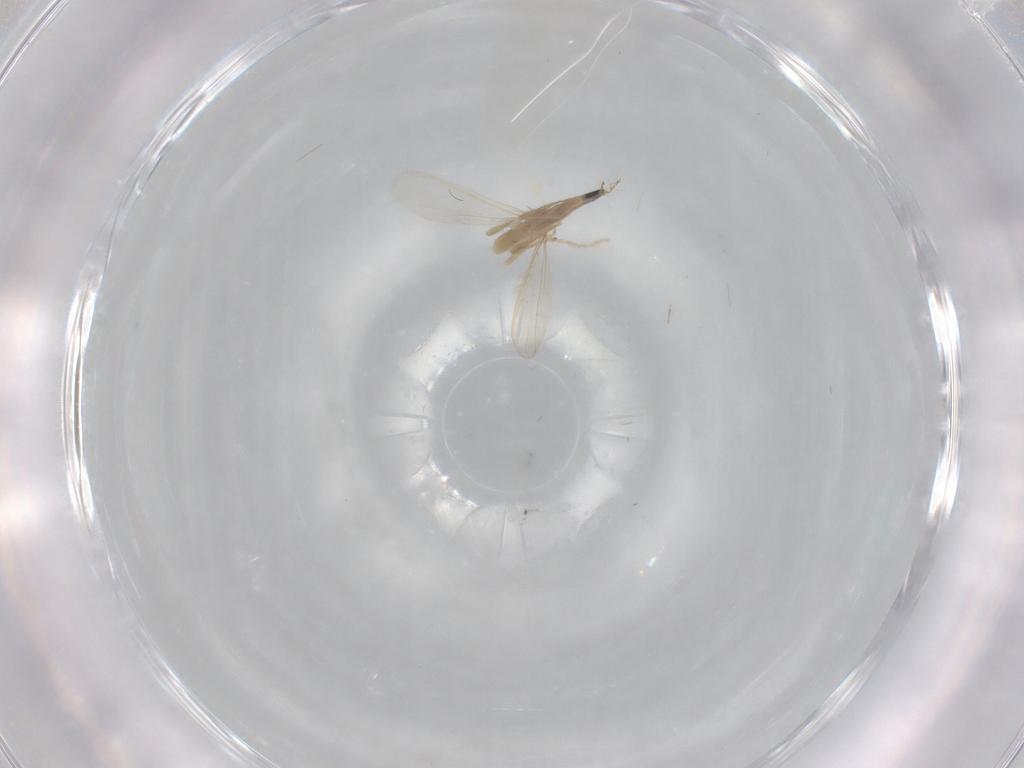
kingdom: Animalia
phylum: Arthropoda
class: Insecta
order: Diptera
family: Chironomidae
